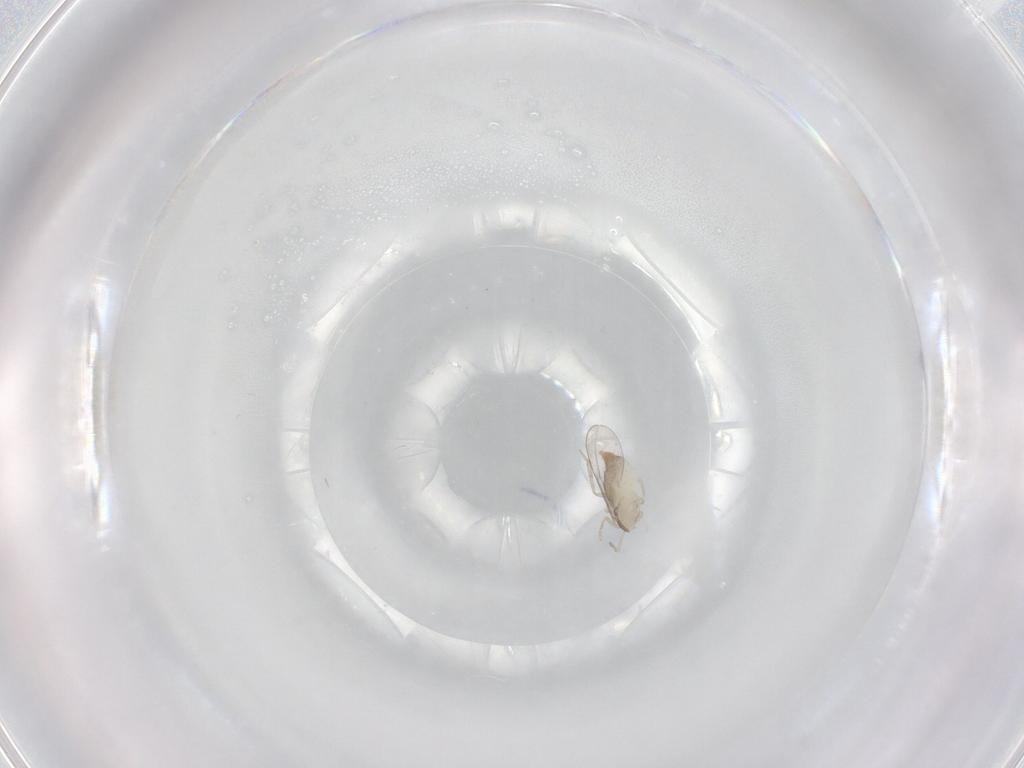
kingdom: Animalia
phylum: Arthropoda
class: Insecta
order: Diptera
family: Cecidomyiidae
